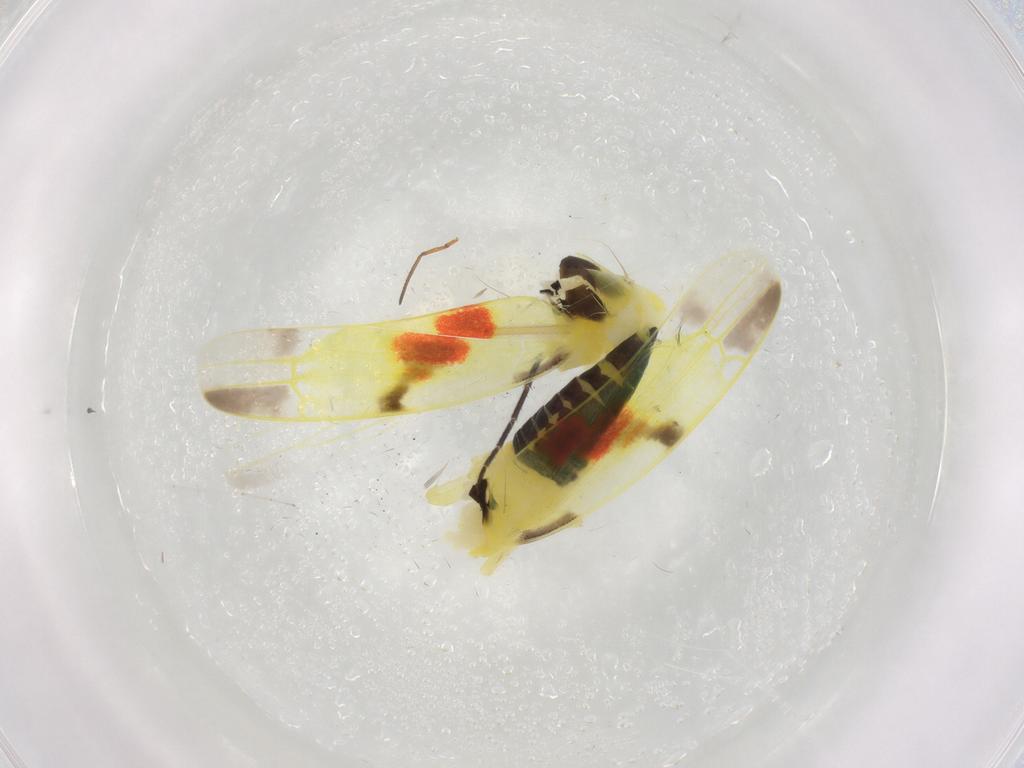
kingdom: Animalia
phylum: Arthropoda
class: Insecta
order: Hemiptera
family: Cicadellidae
